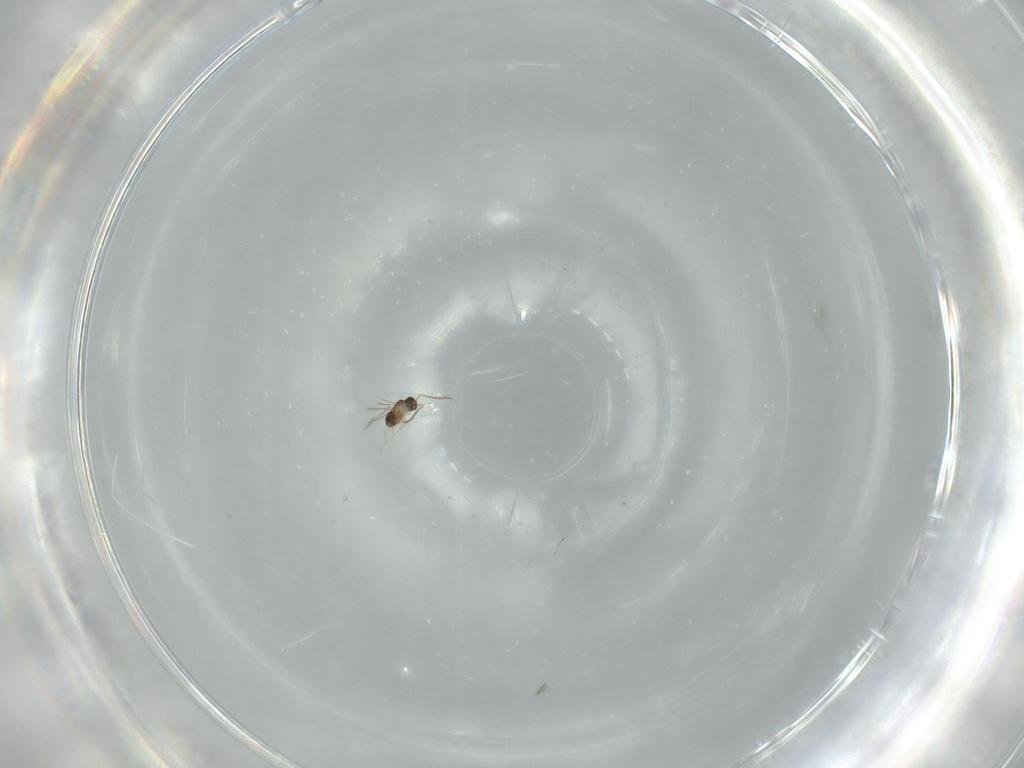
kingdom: Animalia
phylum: Arthropoda
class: Insecta
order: Hymenoptera
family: Mymaridae
